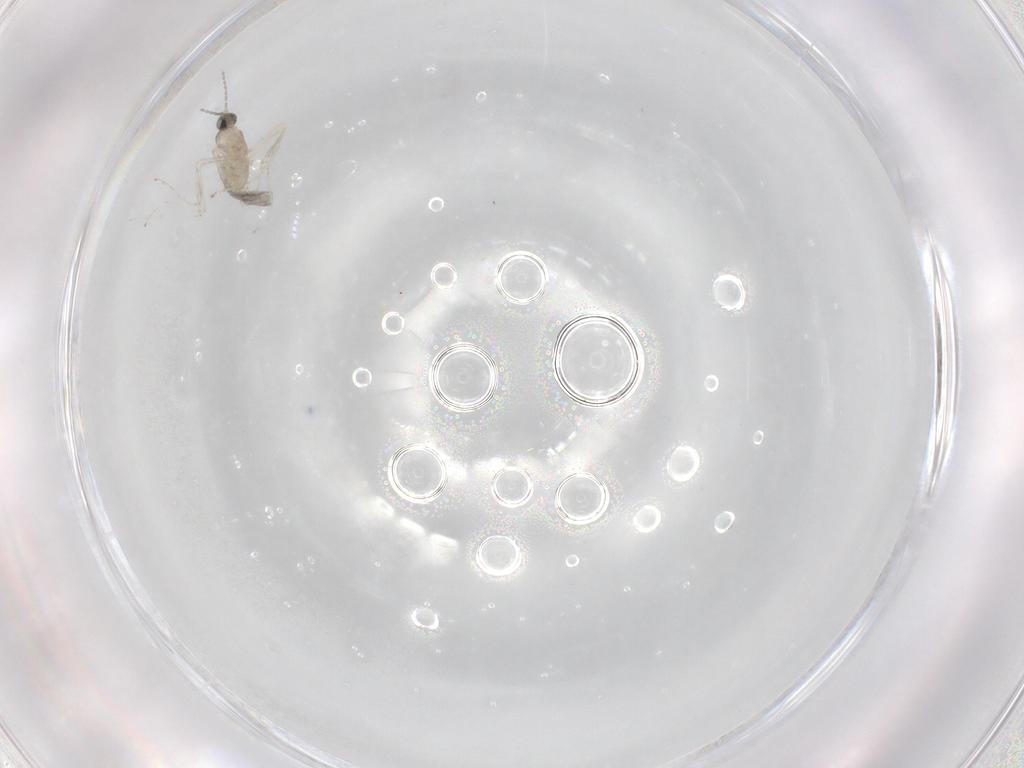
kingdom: Animalia
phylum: Arthropoda
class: Insecta
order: Diptera
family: Cecidomyiidae
